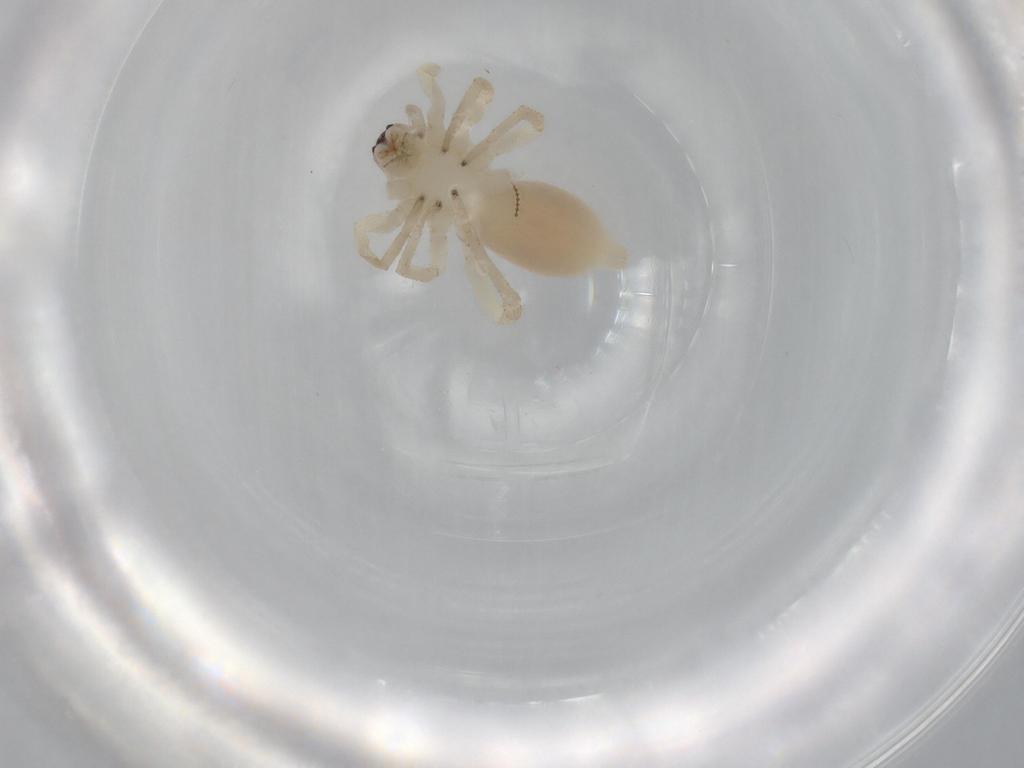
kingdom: Animalia
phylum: Arthropoda
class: Arachnida
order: Araneae
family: Clubionidae
